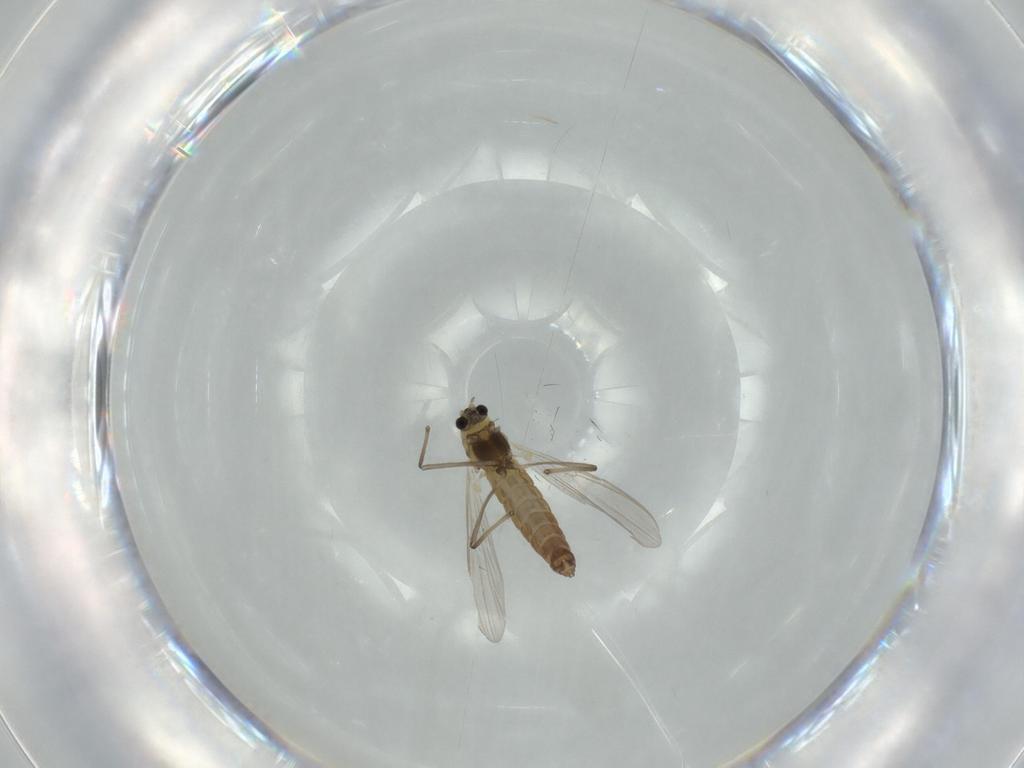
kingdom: Animalia
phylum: Arthropoda
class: Insecta
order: Diptera
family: Chironomidae
